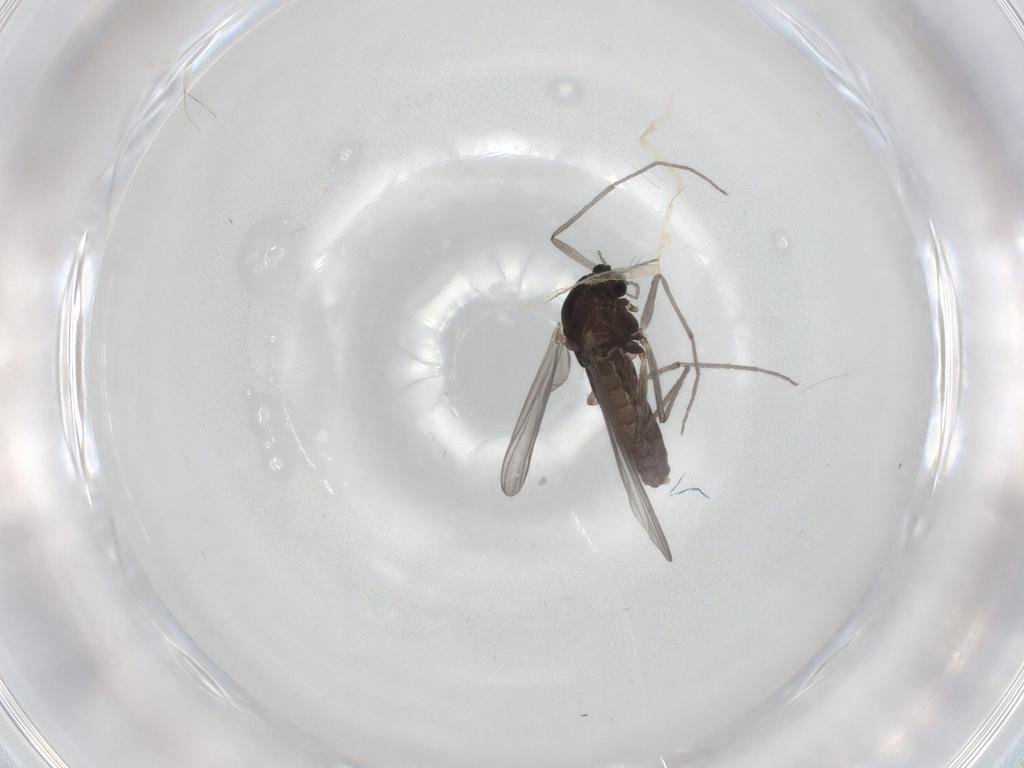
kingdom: Animalia
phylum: Arthropoda
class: Insecta
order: Diptera
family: Chironomidae
